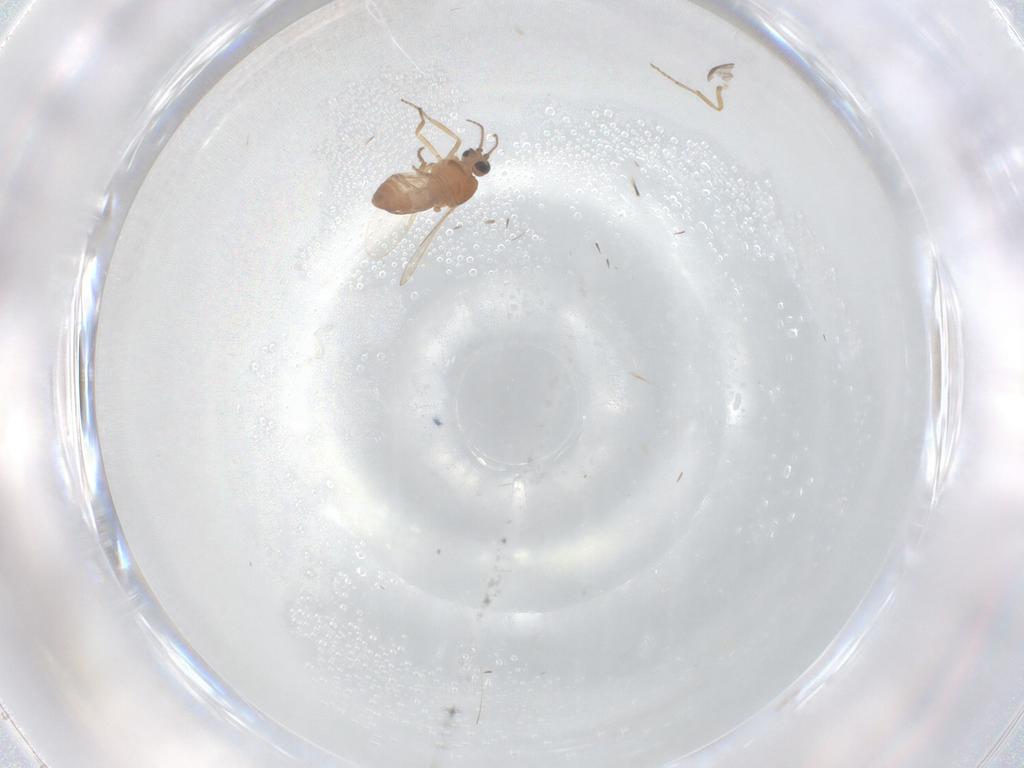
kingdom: Animalia
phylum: Arthropoda
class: Insecta
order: Diptera
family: Ceratopogonidae
